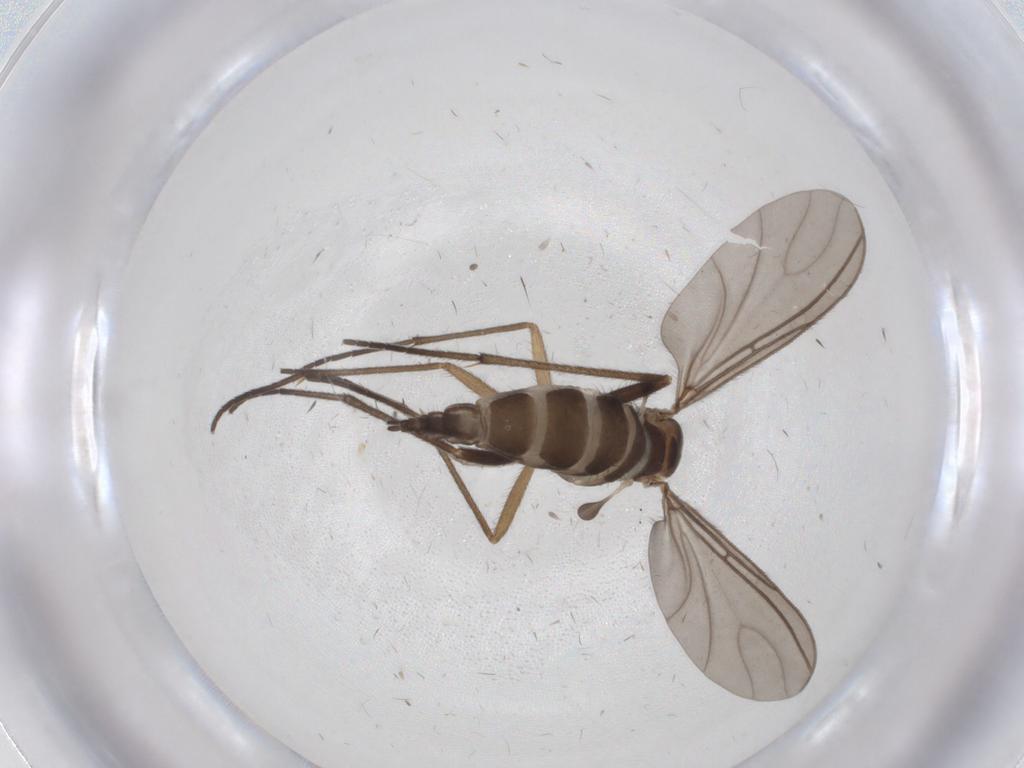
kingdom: Animalia
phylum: Arthropoda
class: Insecta
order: Diptera
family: Sciaridae
